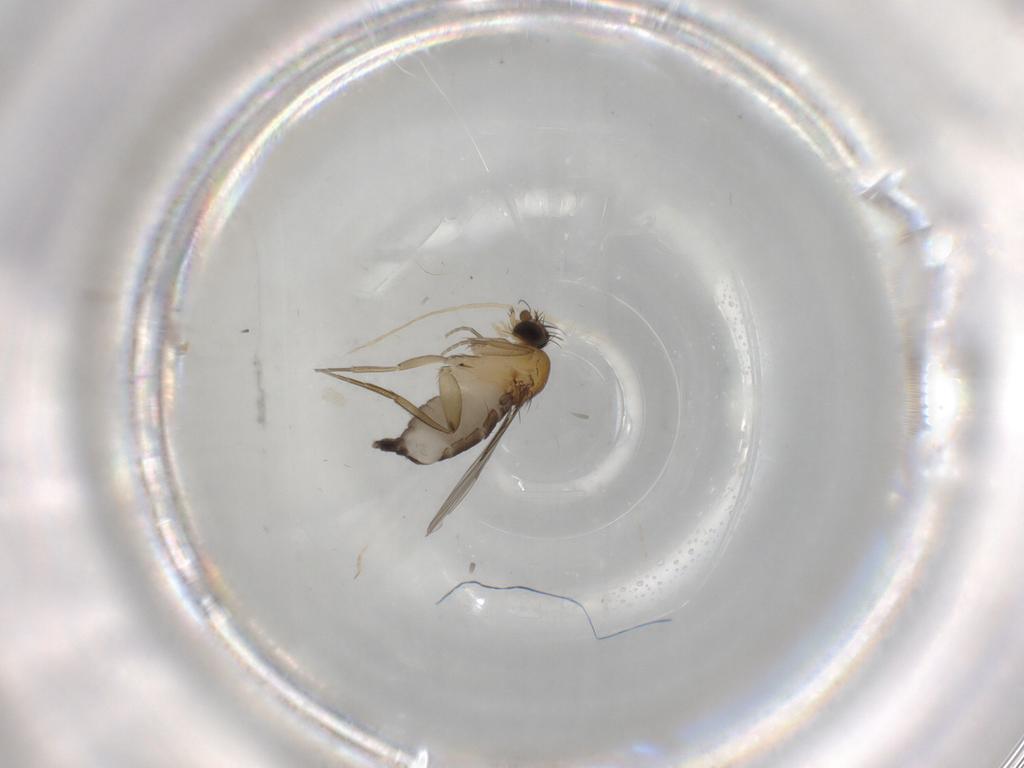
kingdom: Animalia
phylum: Arthropoda
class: Insecta
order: Diptera
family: Phoridae
